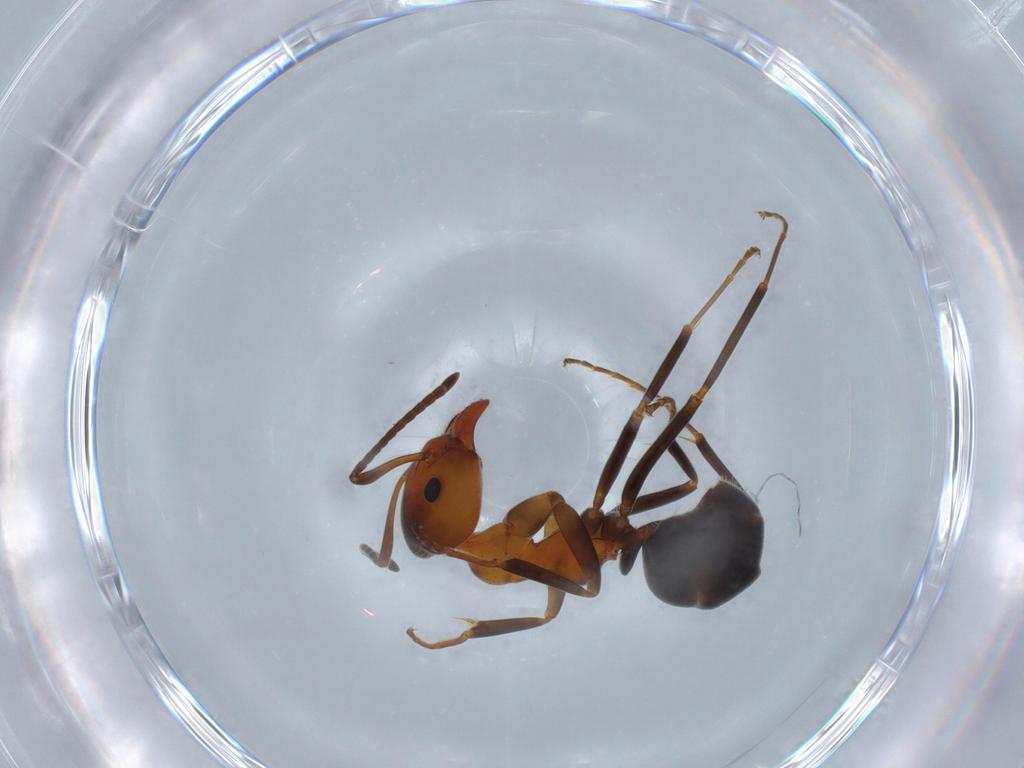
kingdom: Animalia
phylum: Arthropoda
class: Insecta
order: Hymenoptera
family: Formicidae
